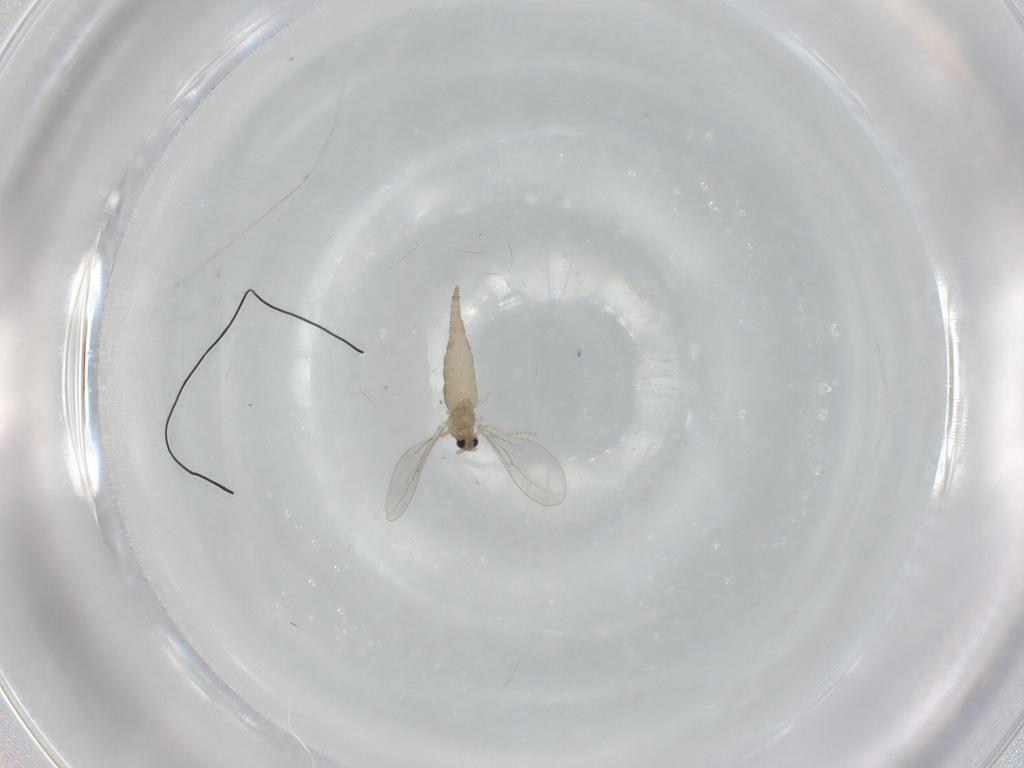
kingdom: Animalia
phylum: Arthropoda
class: Insecta
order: Diptera
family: Cecidomyiidae
